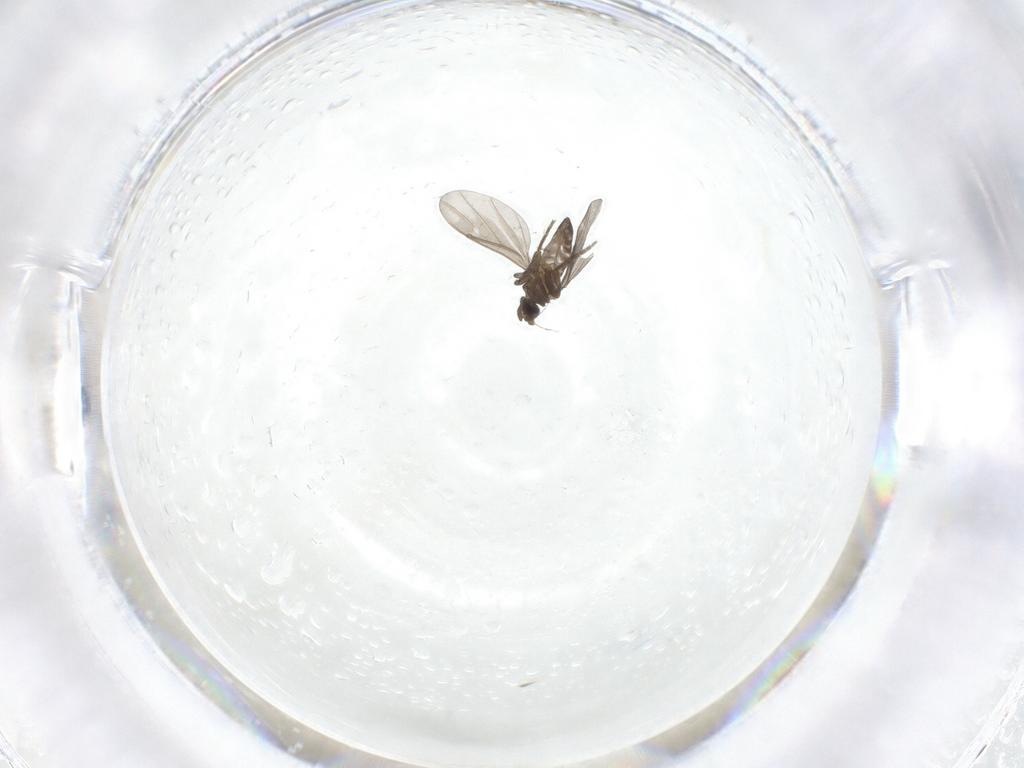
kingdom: Animalia
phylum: Arthropoda
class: Insecta
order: Diptera
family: Cecidomyiidae
